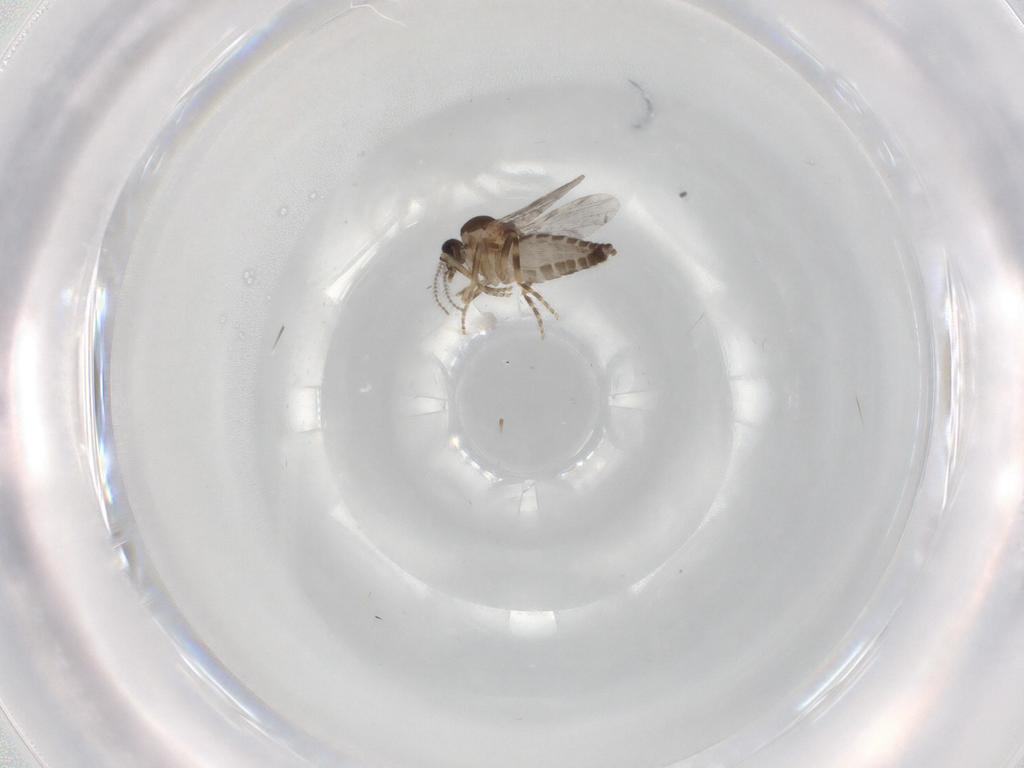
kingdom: Animalia
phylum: Arthropoda
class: Insecta
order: Diptera
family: Ceratopogonidae
